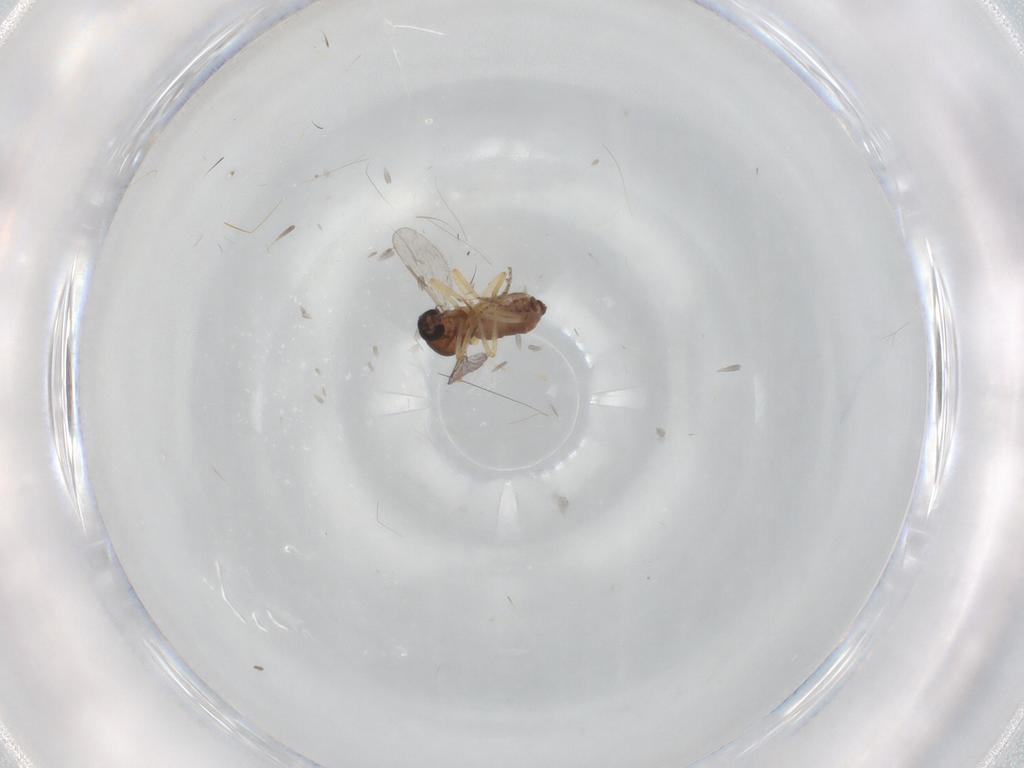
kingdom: Animalia
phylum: Arthropoda
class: Insecta
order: Diptera
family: Ceratopogonidae
